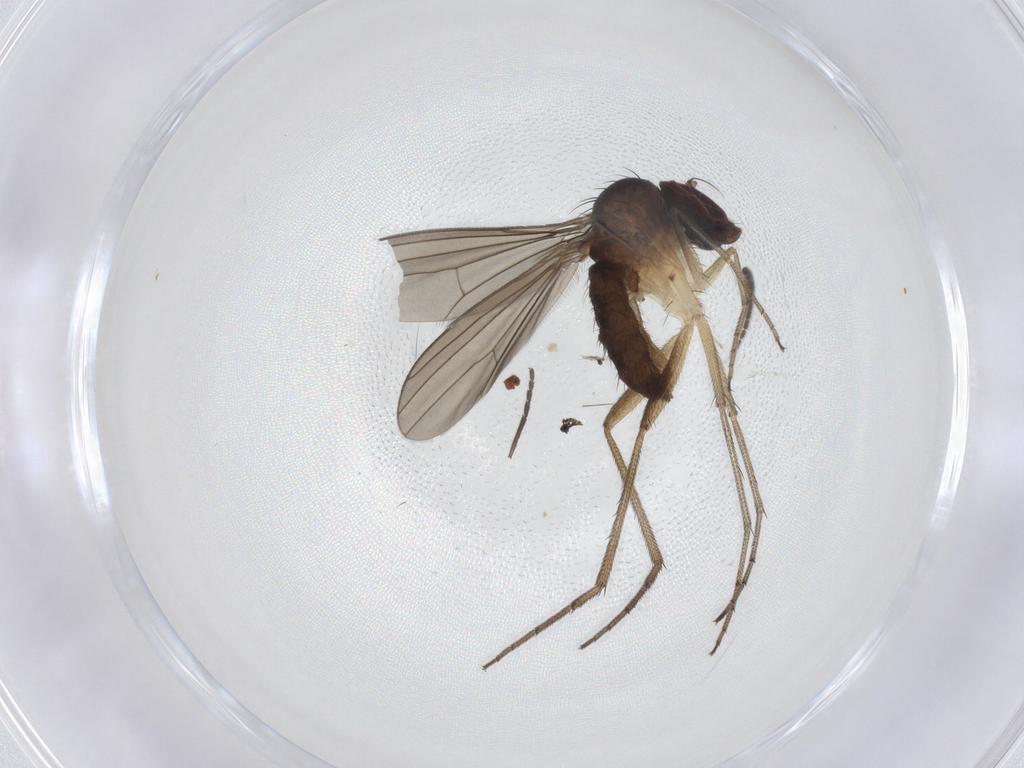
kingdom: Animalia
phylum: Arthropoda
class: Insecta
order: Diptera
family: Dolichopodidae
